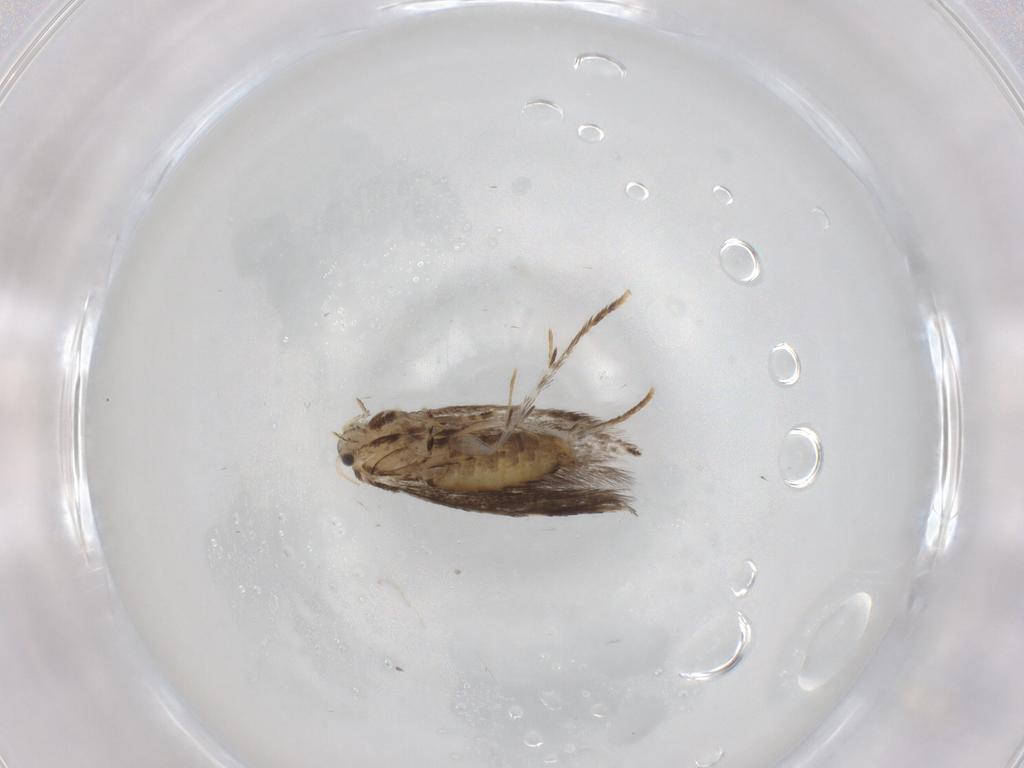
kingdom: Animalia
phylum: Arthropoda
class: Insecta
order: Lepidoptera
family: Incurvariidae
